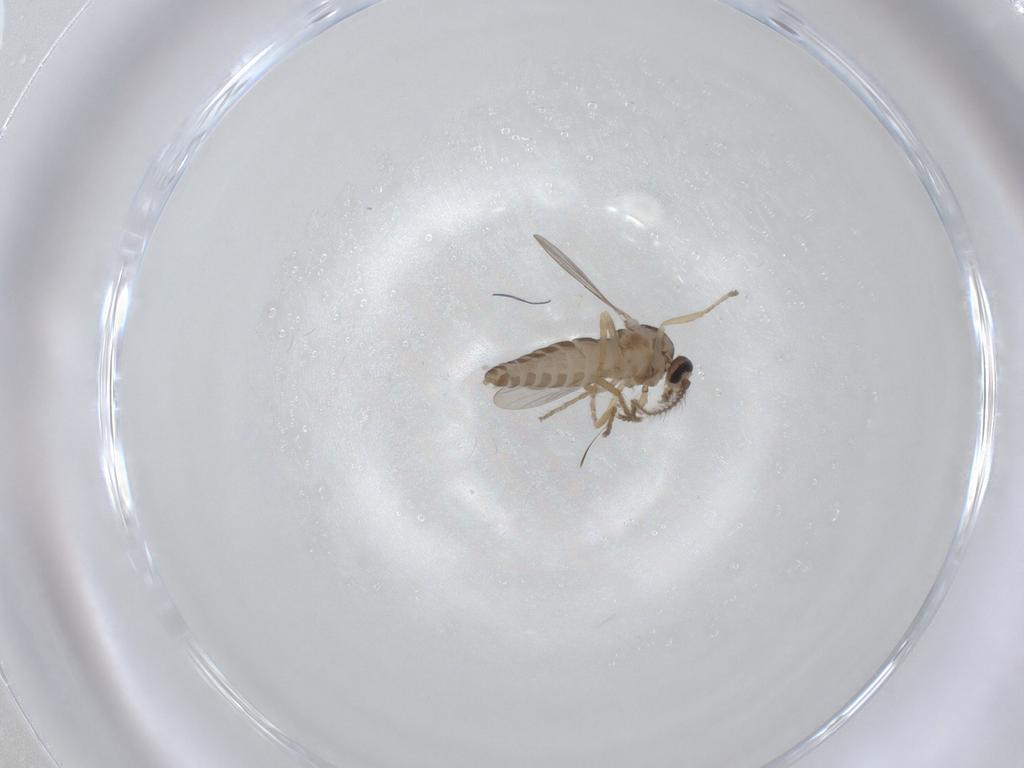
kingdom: Animalia
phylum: Arthropoda
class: Insecta
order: Diptera
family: Ceratopogonidae
